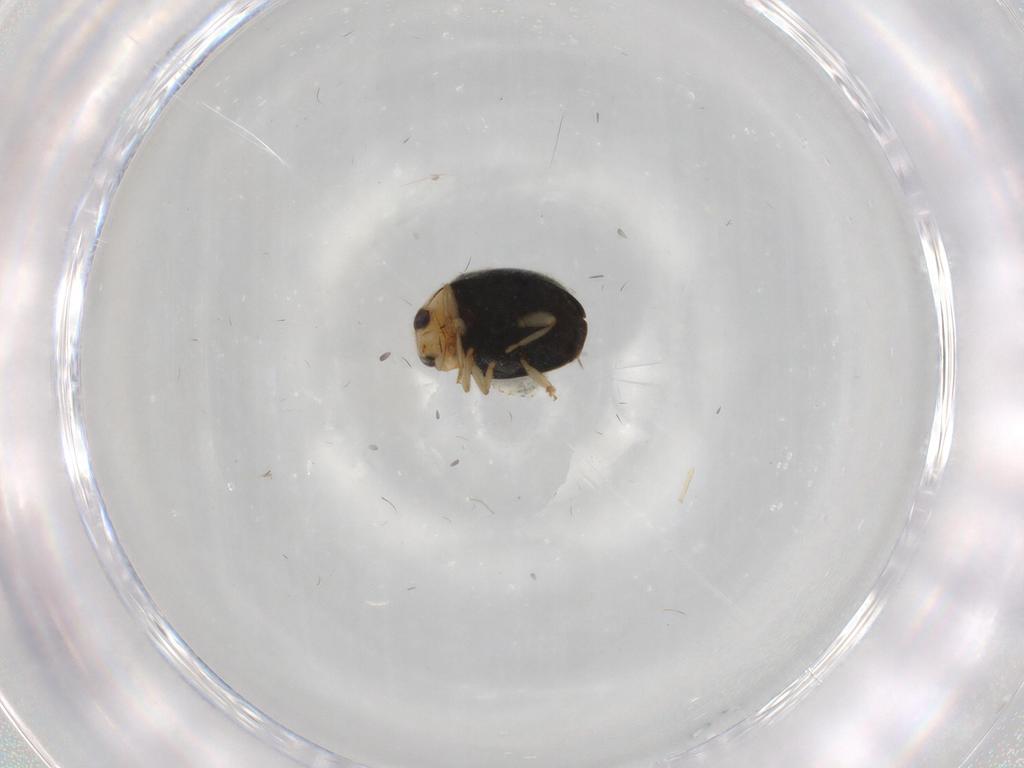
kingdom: Animalia
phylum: Arthropoda
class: Insecta
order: Coleoptera
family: Coccinellidae
